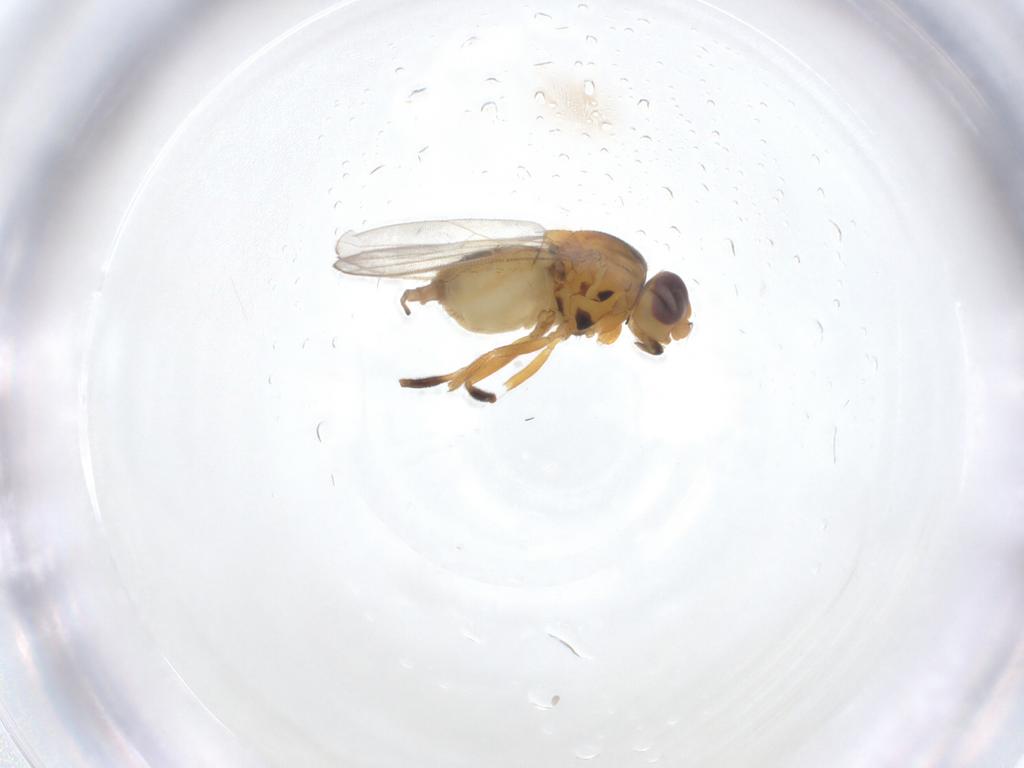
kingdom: Animalia
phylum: Arthropoda
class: Insecta
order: Diptera
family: Chloropidae
